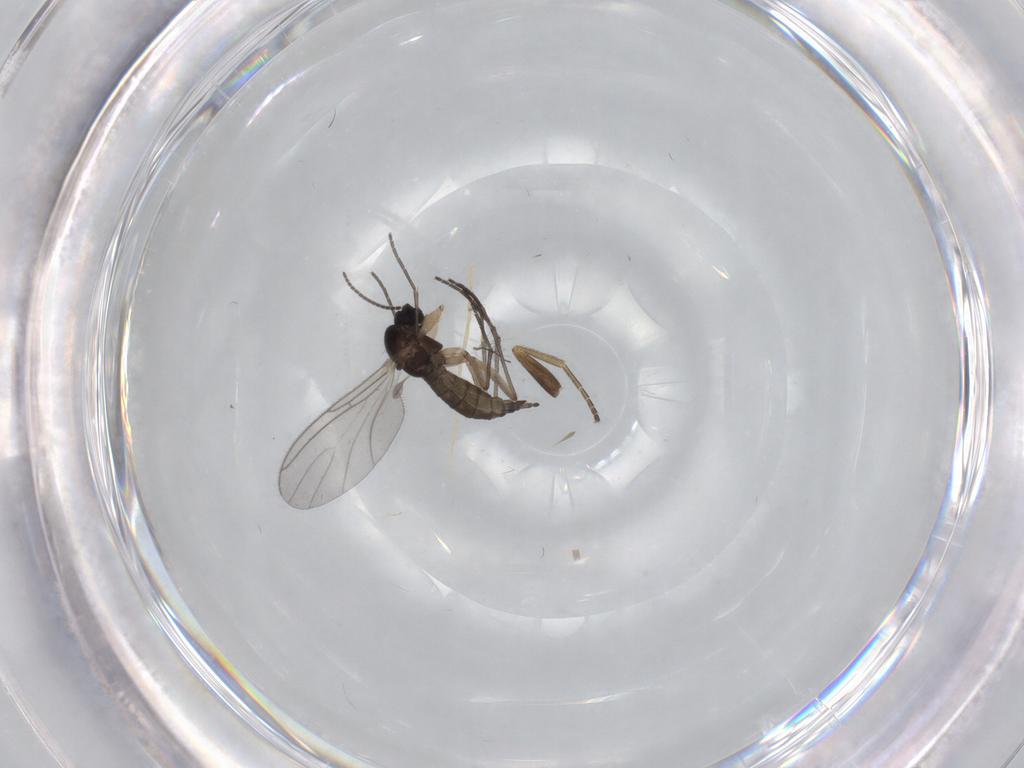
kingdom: Animalia
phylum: Arthropoda
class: Insecta
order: Diptera
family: Sciaridae
